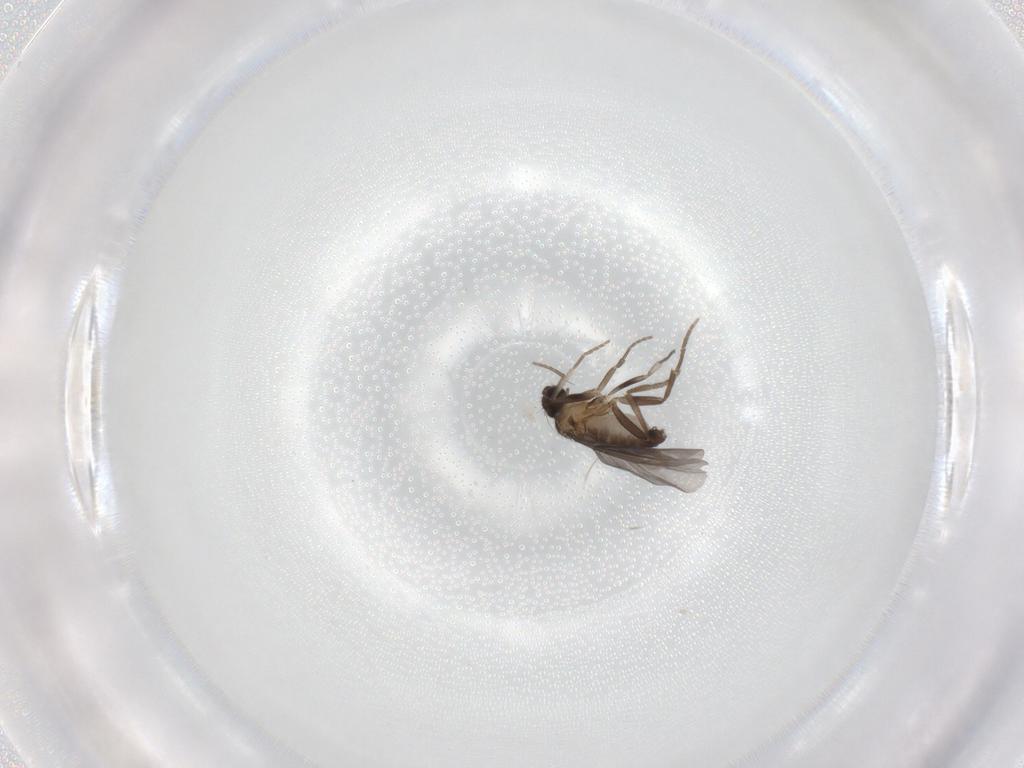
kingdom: Animalia
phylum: Arthropoda
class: Insecta
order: Diptera
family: Phoridae
